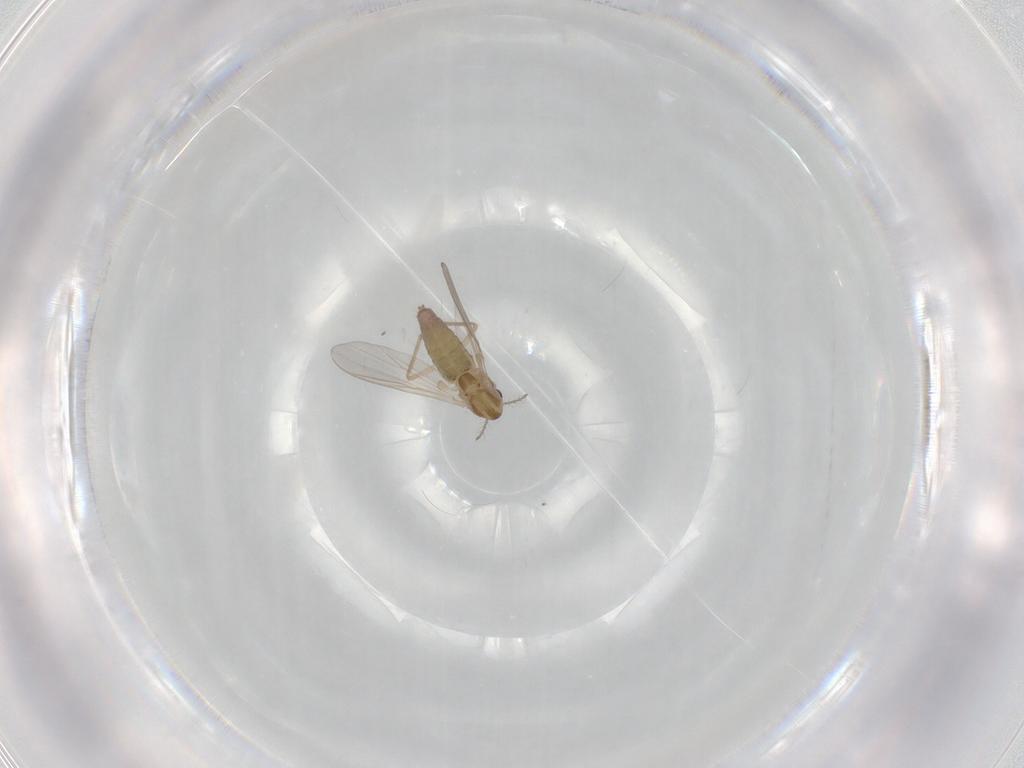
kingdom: Animalia
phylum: Arthropoda
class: Insecta
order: Diptera
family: Chironomidae
